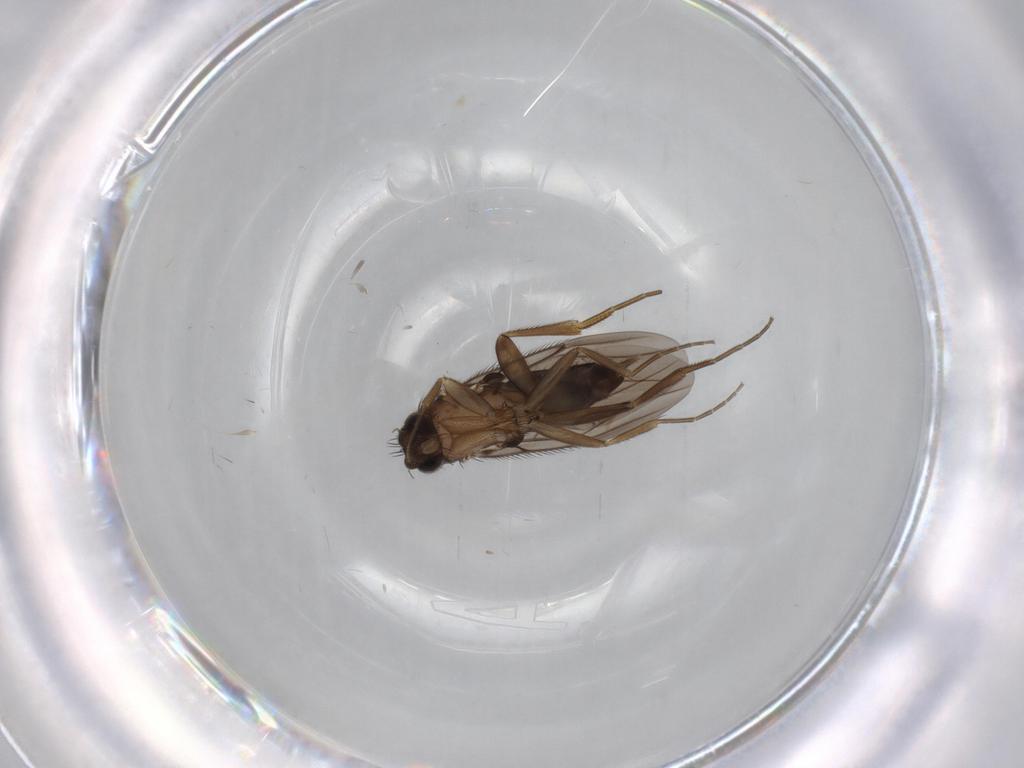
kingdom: Animalia
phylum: Arthropoda
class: Insecta
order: Diptera
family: Phoridae
